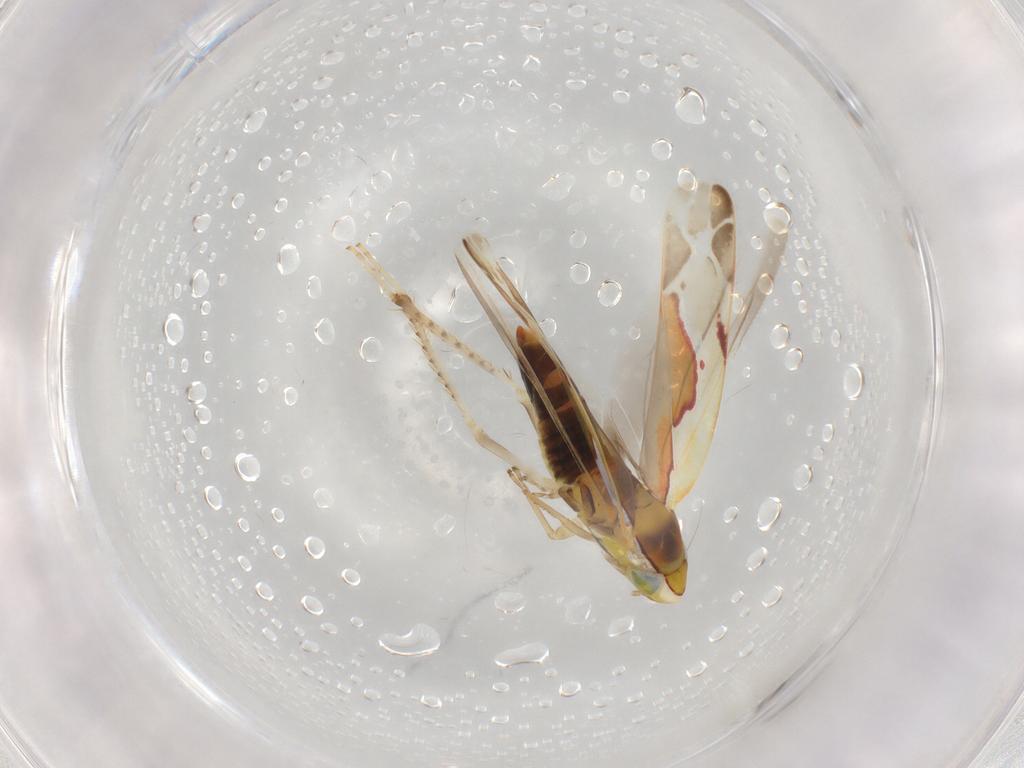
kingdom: Animalia
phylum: Arthropoda
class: Insecta
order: Hemiptera
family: Cicadellidae
